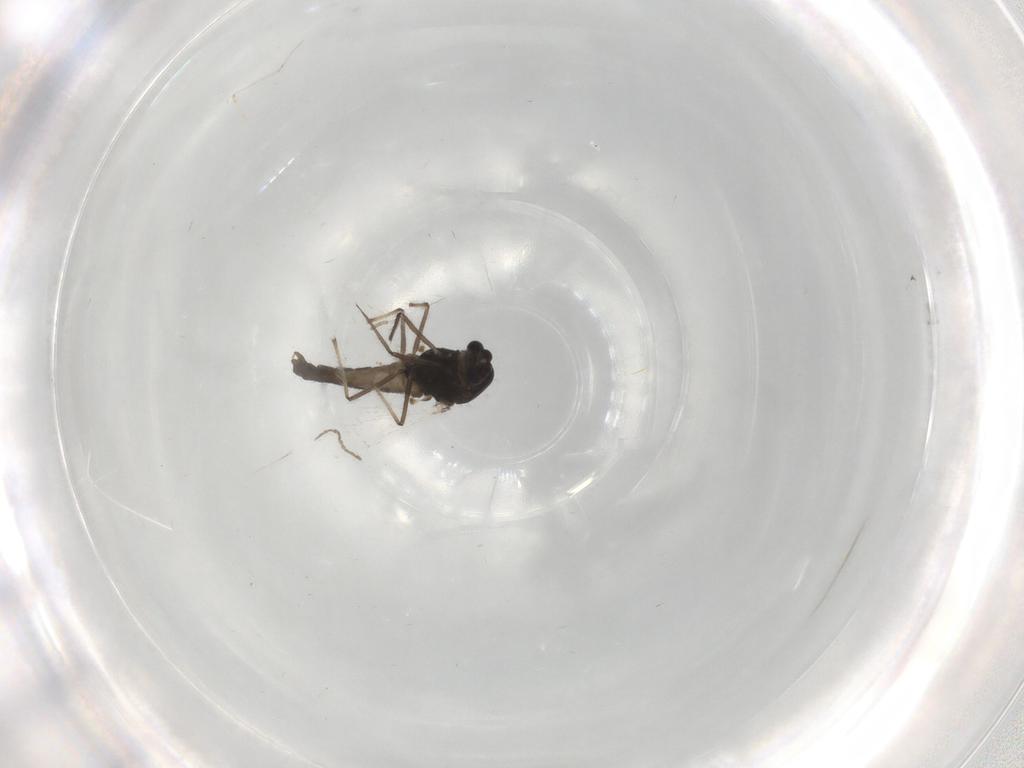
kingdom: Animalia
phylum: Arthropoda
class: Insecta
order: Diptera
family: Chironomidae
